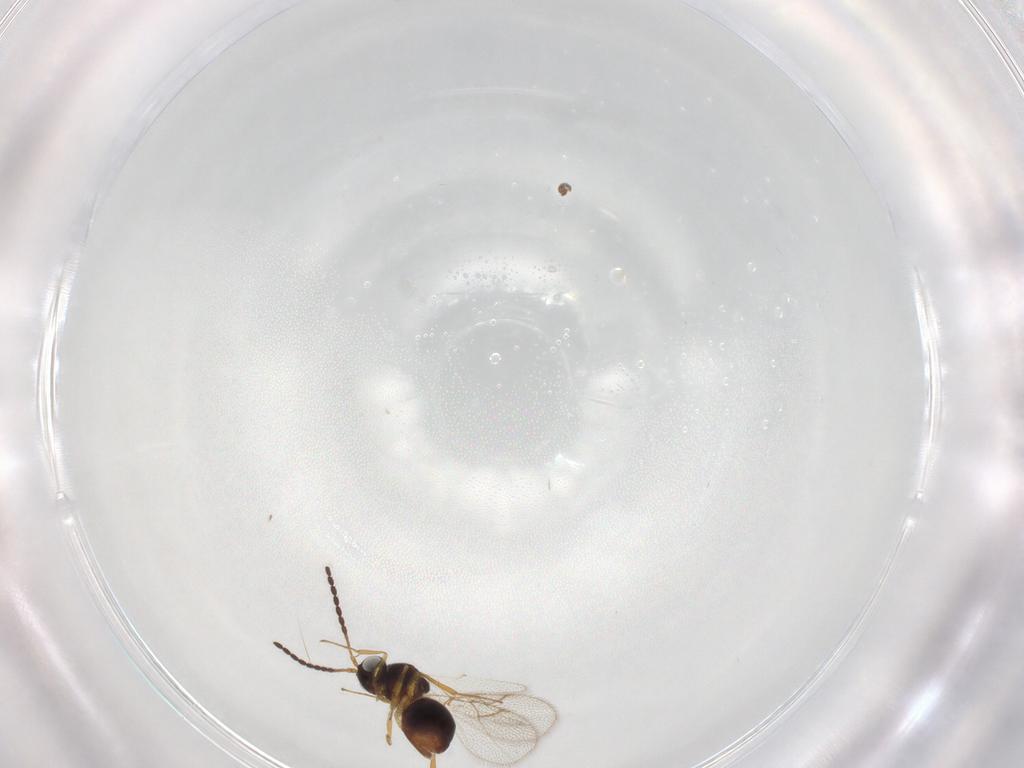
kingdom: Animalia
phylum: Arthropoda
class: Insecta
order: Hymenoptera
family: Figitidae
